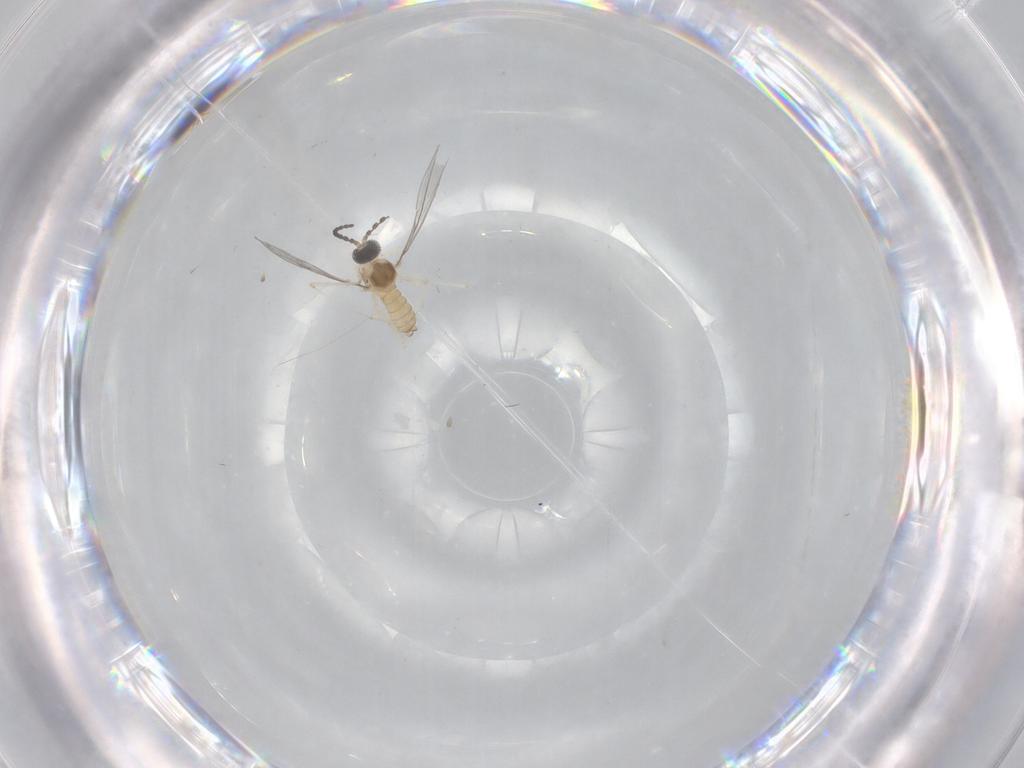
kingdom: Animalia
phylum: Arthropoda
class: Insecta
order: Diptera
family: Cecidomyiidae
